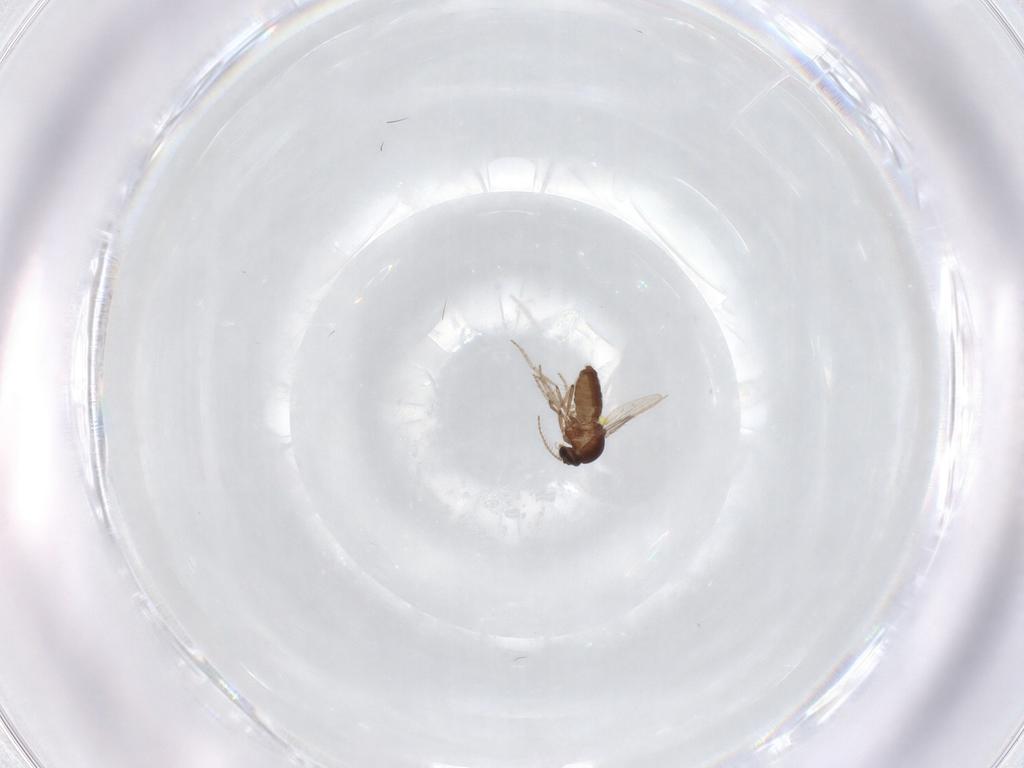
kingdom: Animalia
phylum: Arthropoda
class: Insecta
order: Diptera
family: Ceratopogonidae
